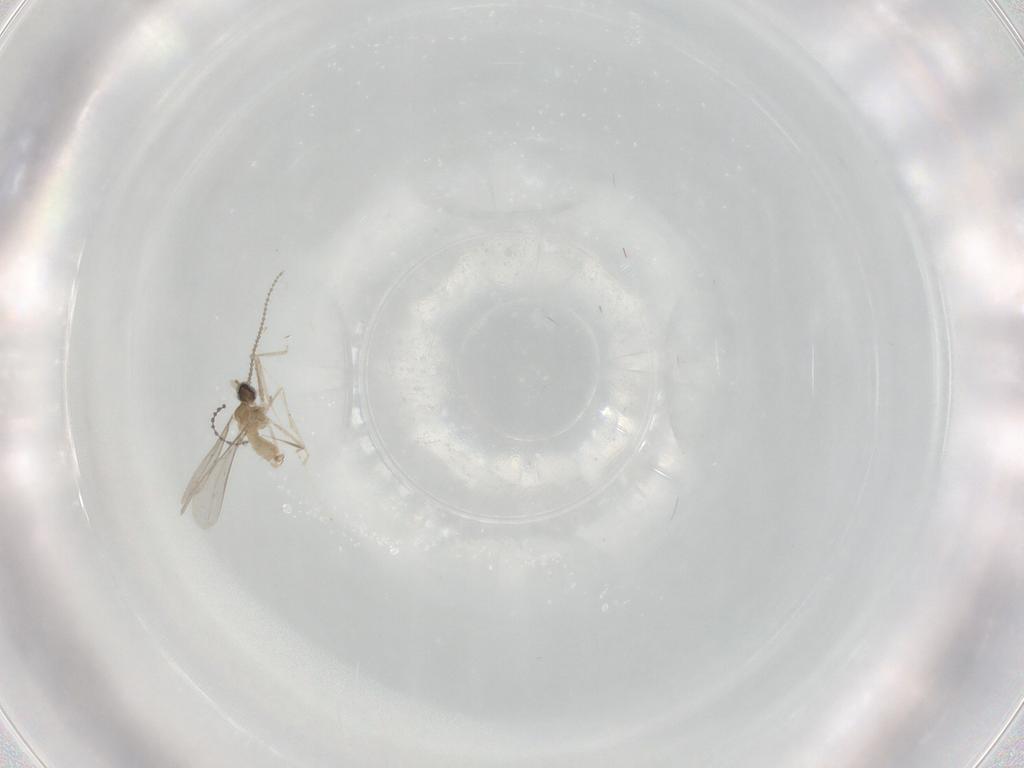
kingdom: Animalia
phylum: Arthropoda
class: Insecta
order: Diptera
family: Cecidomyiidae
